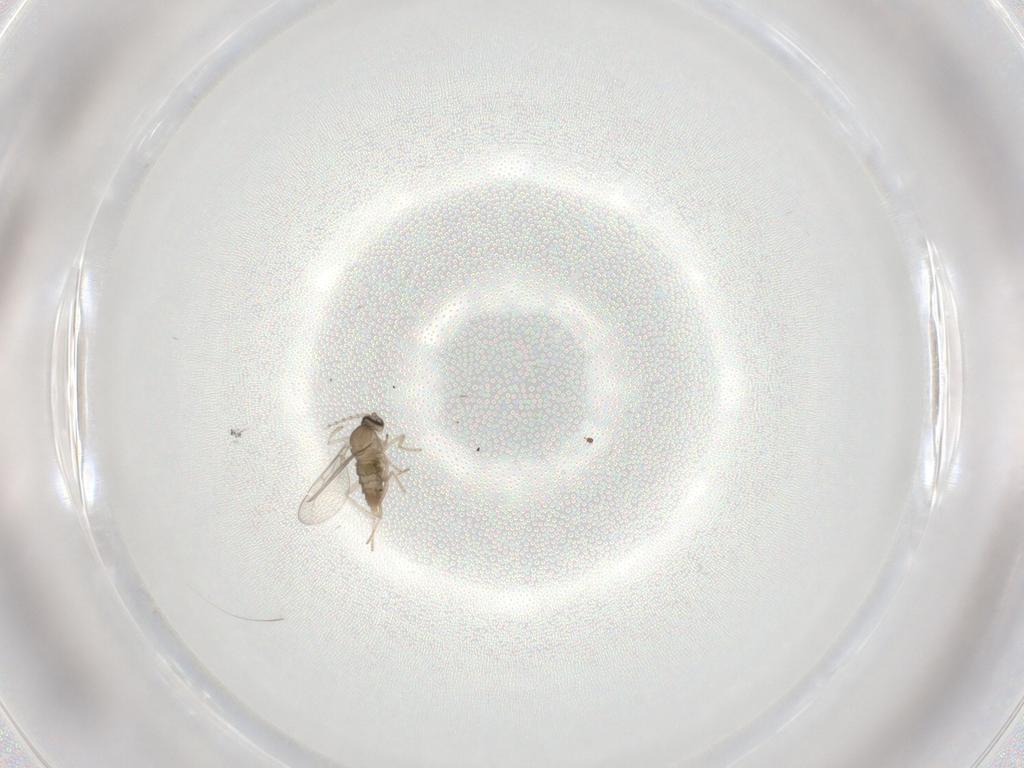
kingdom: Animalia
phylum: Arthropoda
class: Insecta
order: Diptera
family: Cecidomyiidae
